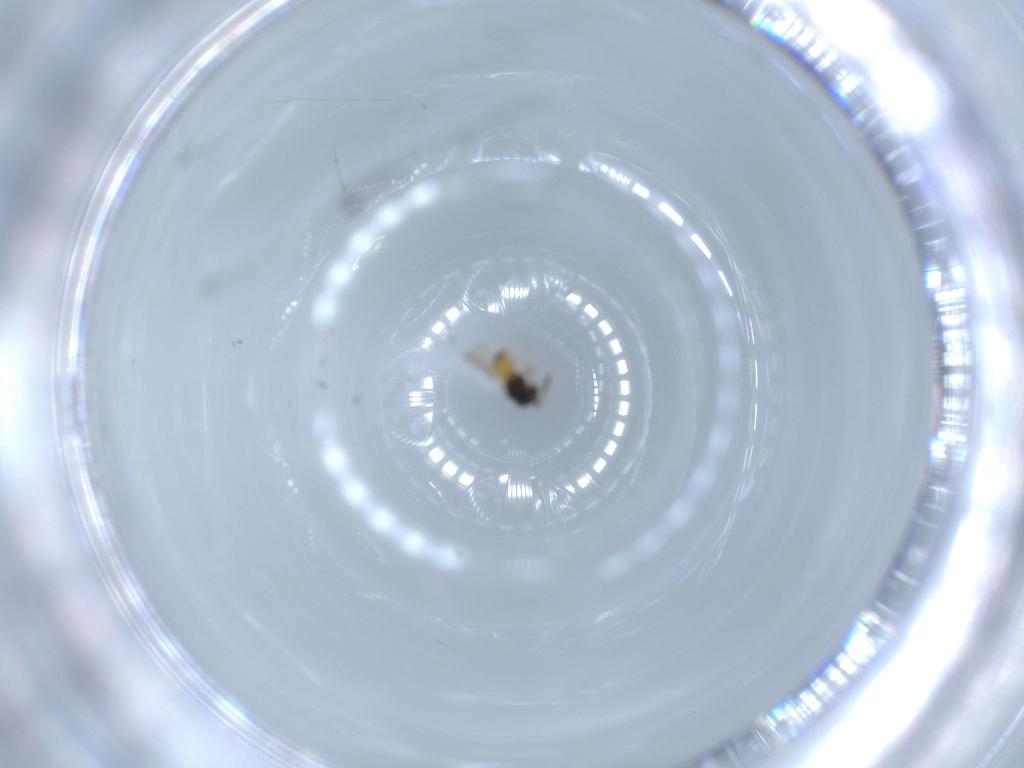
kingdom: Animalia
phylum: Arthropoda
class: Insecta
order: Hymenoptera
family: Scelionidae
